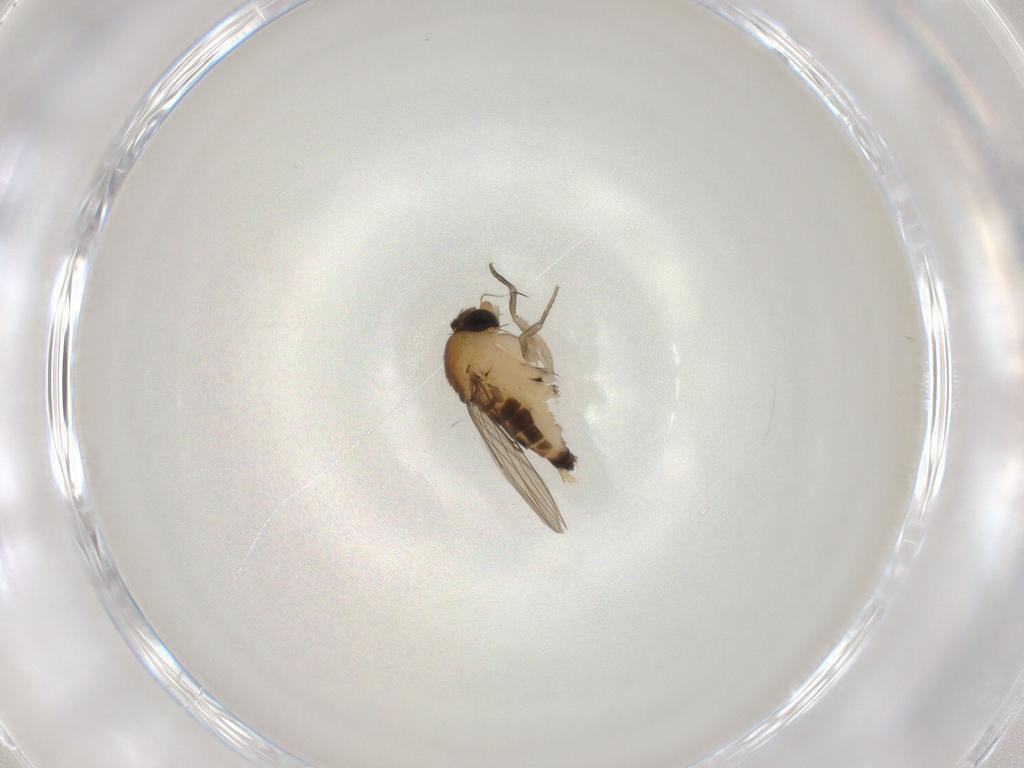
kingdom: Animalia
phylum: Arthropoda
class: Insecta
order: Diptera
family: Phoridae
